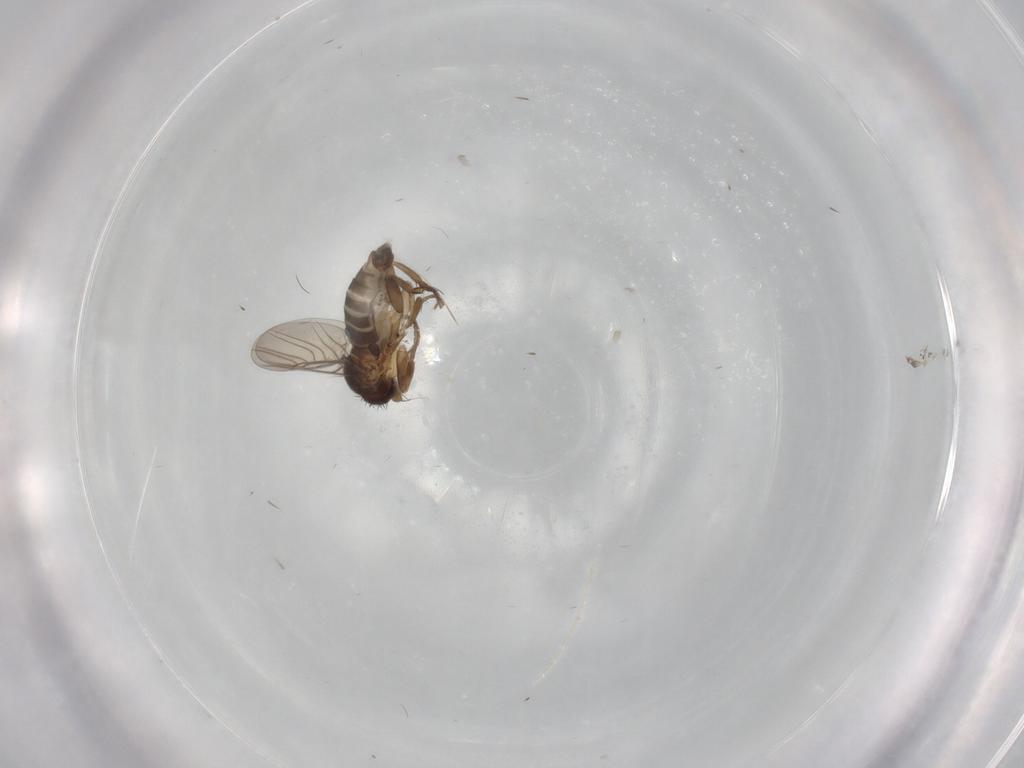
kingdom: Animalia
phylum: Arthropoda
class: Insecta
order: Diptera
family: Phoridae
